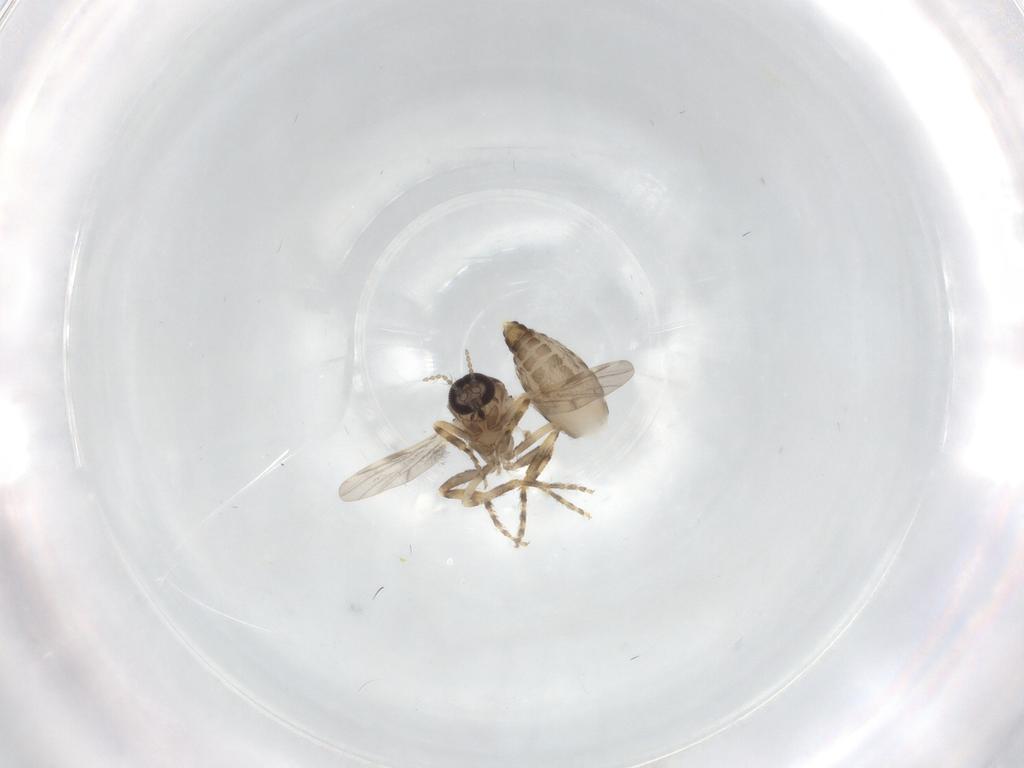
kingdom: Animalia
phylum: Arthropoda
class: Insecta
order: Diptera
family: Ceratopogonidae
